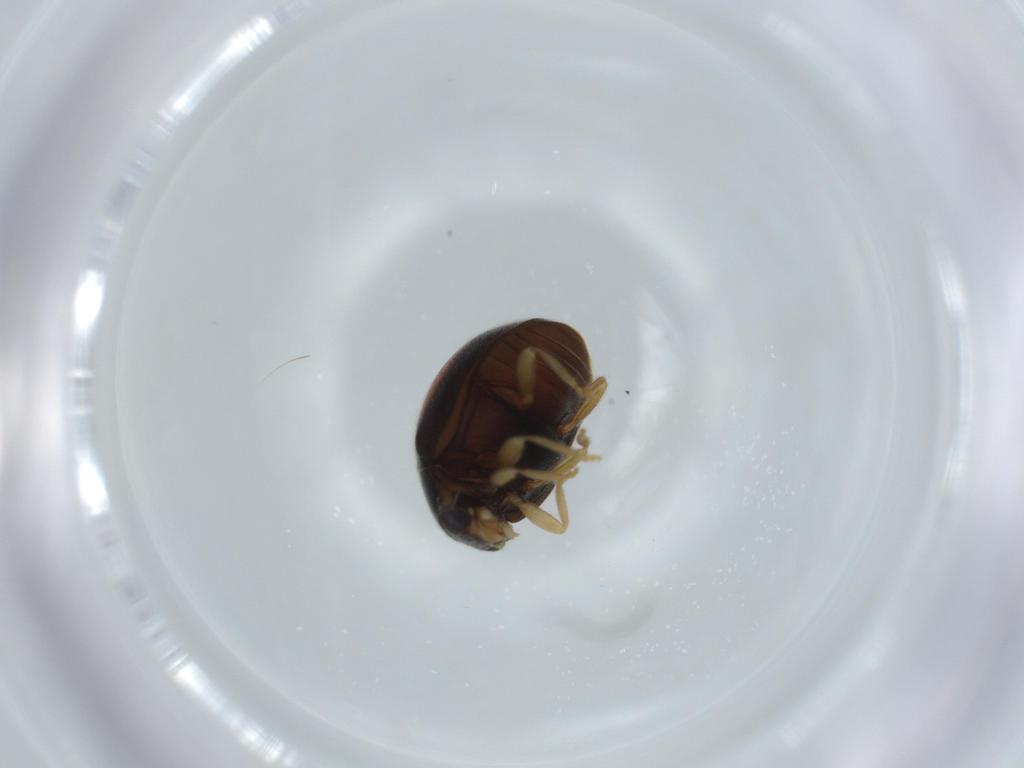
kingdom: Animalia
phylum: Arthropoda
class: Insecta
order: Coleoptera
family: Coccinellidae
